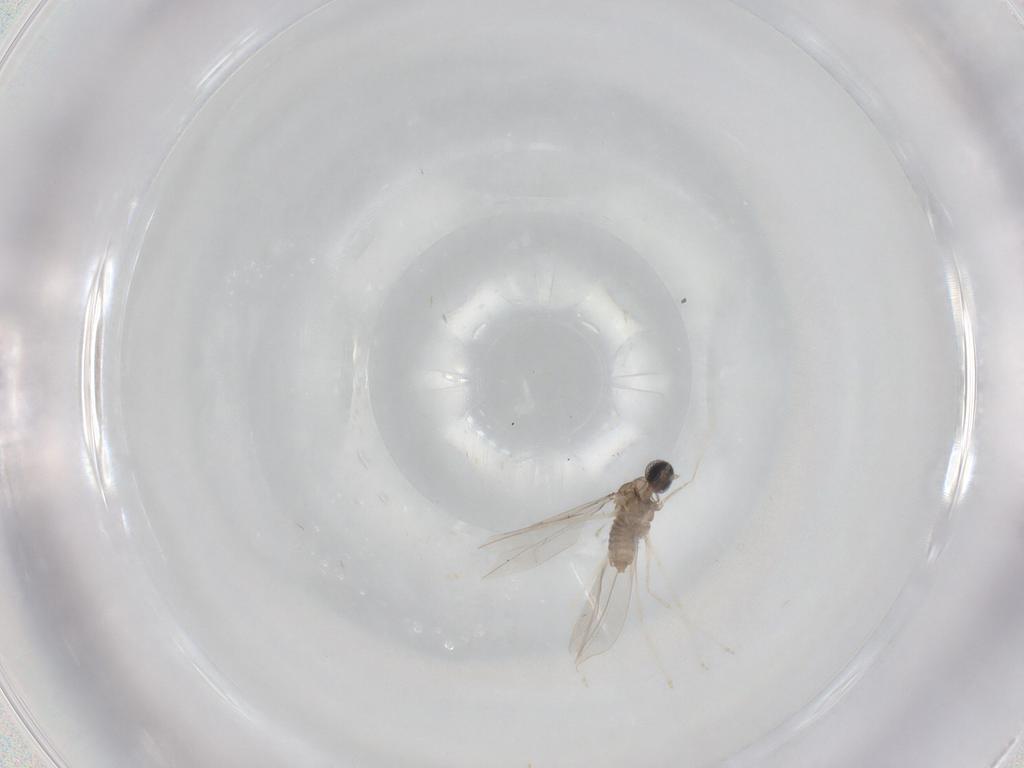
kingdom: Animalia
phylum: Arthropoda
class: Insecta
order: Diptera
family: Cecidomyiidae
